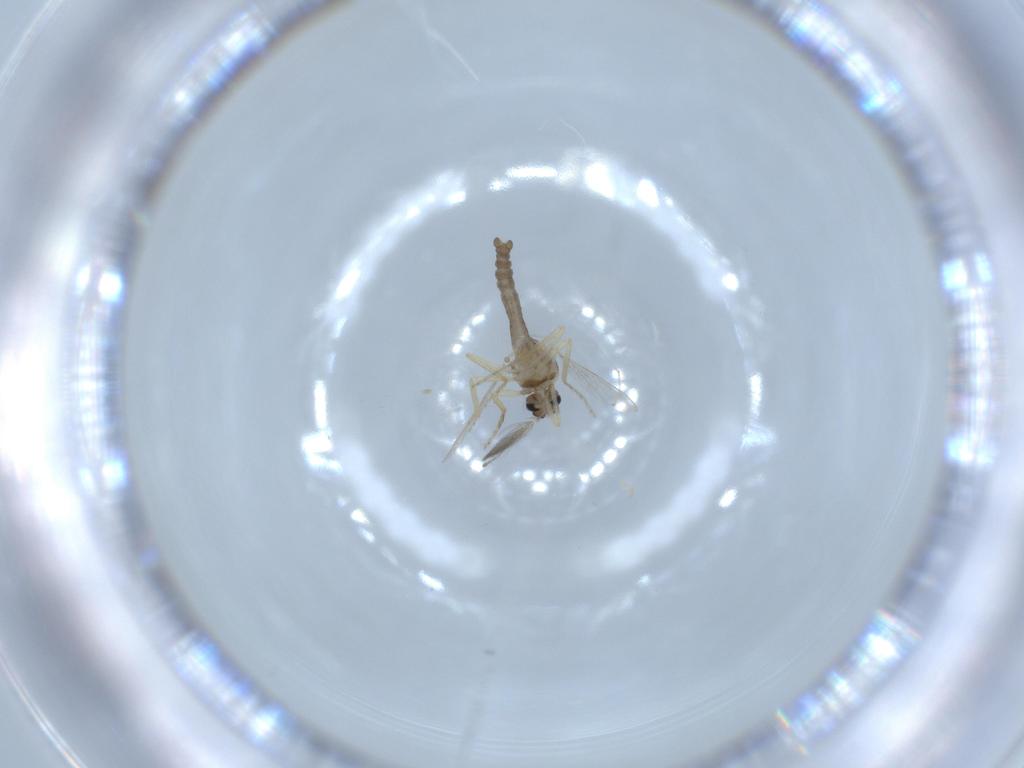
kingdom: Animalia
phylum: Arthropoda
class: Insecta
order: Diptera
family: Ceratopogonidae
